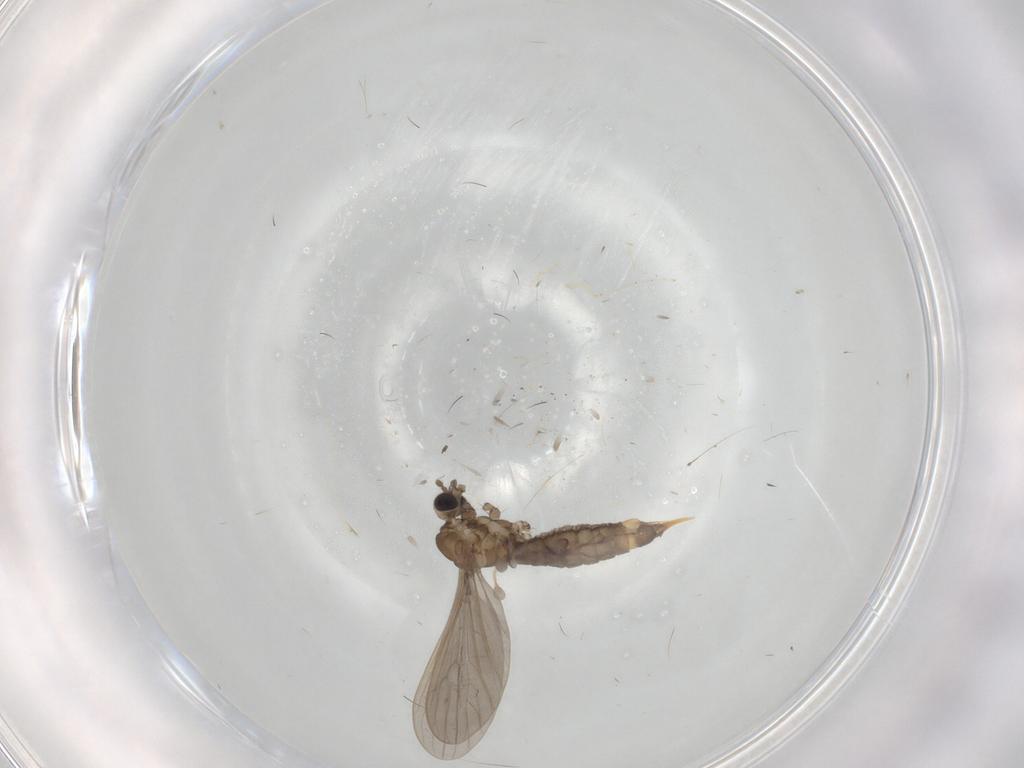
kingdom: Animalia
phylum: Arthropoda
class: Insecta
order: Diptera
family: Limoniidae
